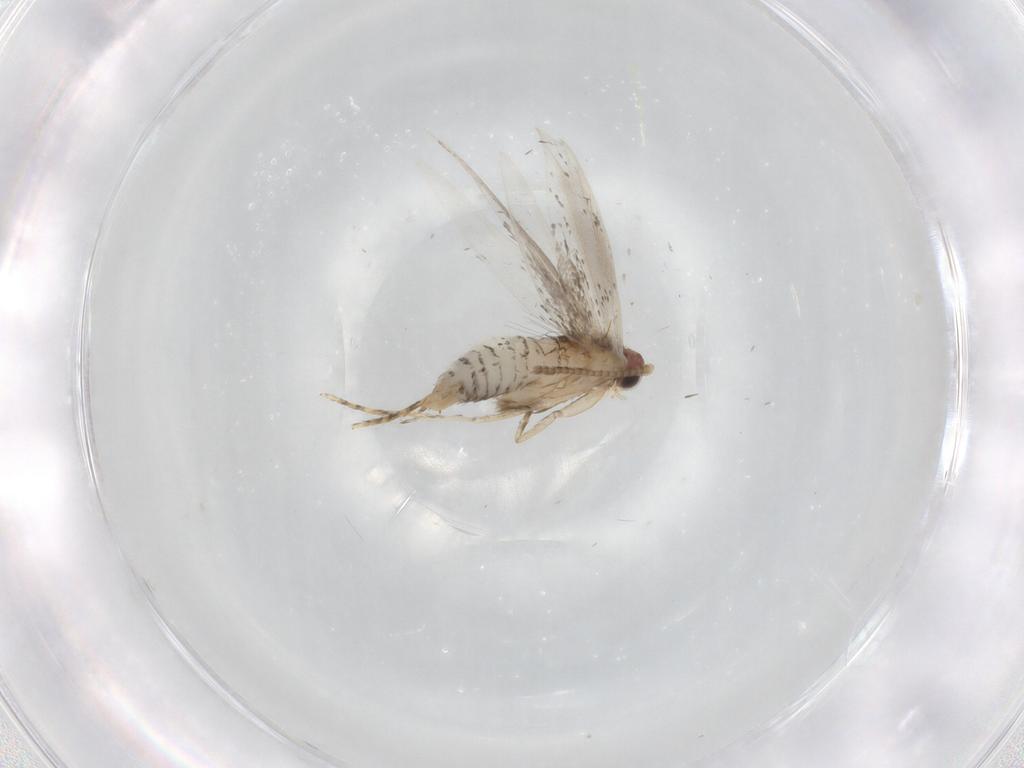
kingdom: Animalia
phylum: Arthropoda
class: Insecta
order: Lepidoptera
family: Tineidae
